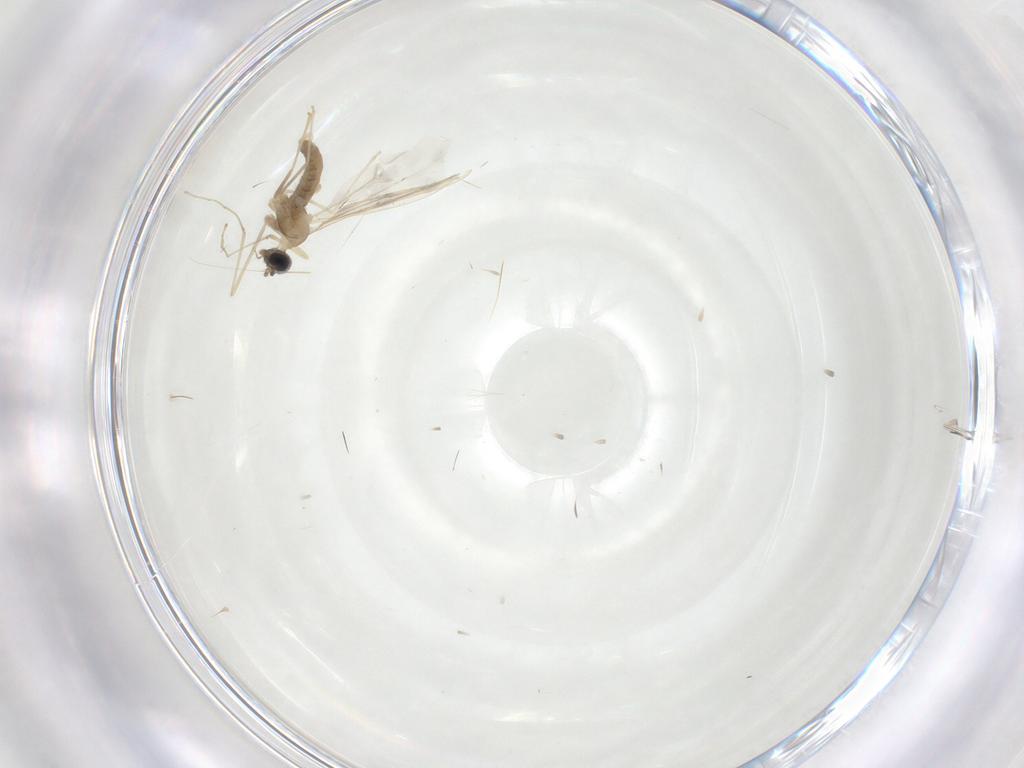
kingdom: Animalia
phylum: Arthropoda
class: Insecta
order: Diptera
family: Cecidomyiidae
